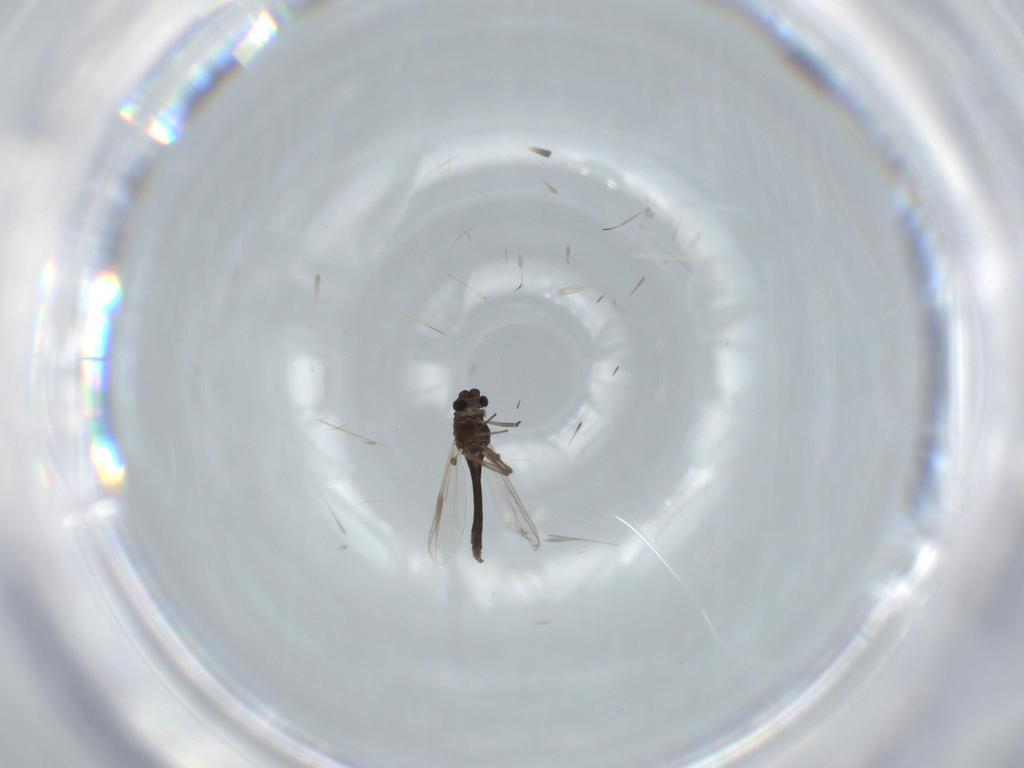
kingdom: Animalia
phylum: Arthropoda
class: Insecta
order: Diptera
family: Chironomidae
